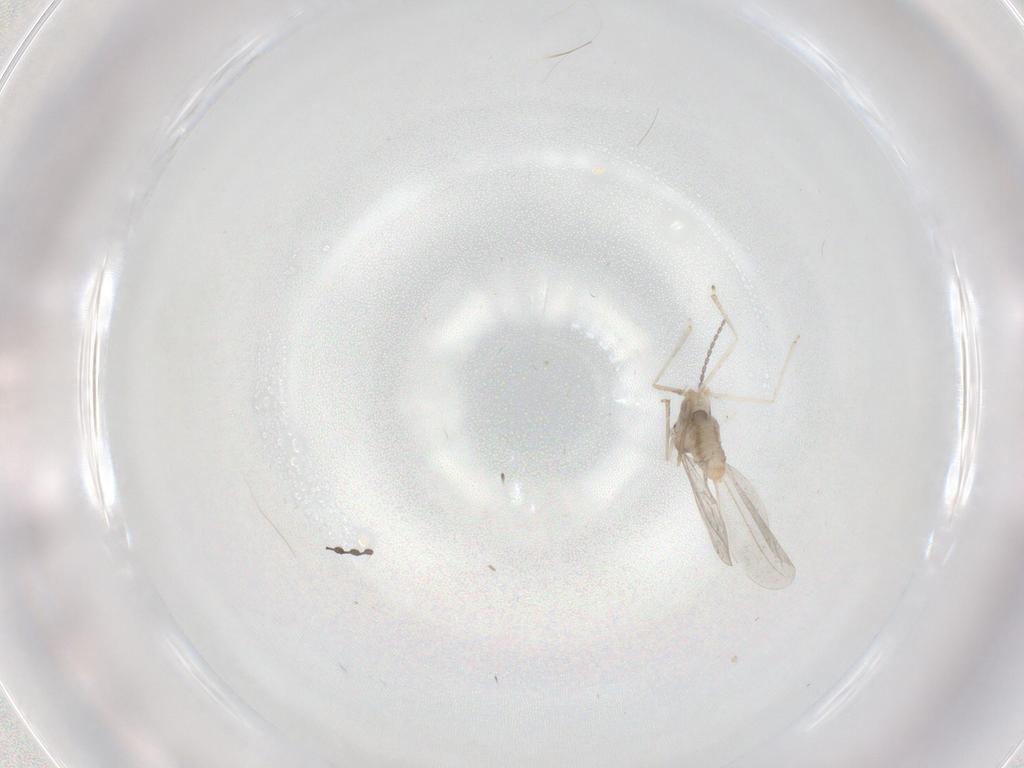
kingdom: Animalia
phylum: Arthropoda
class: Insecta
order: Diptera
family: Cecidomyiidae
